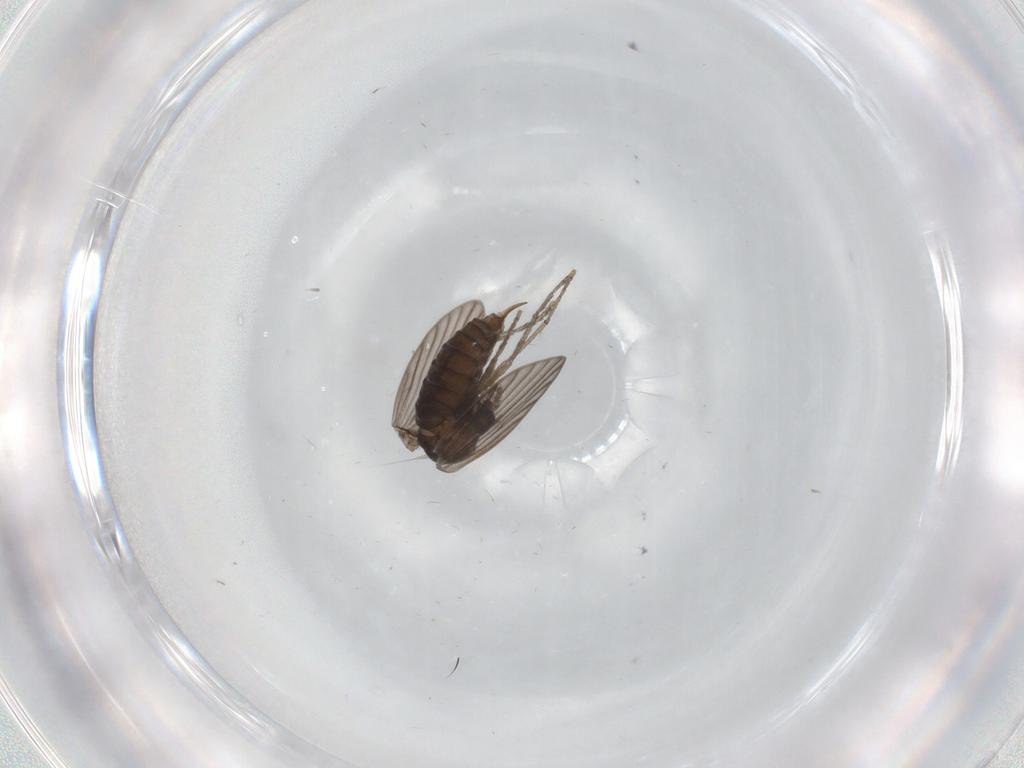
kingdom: Animalia
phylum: Arthropoda
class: Insecta
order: Diptera
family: Psychodidae
